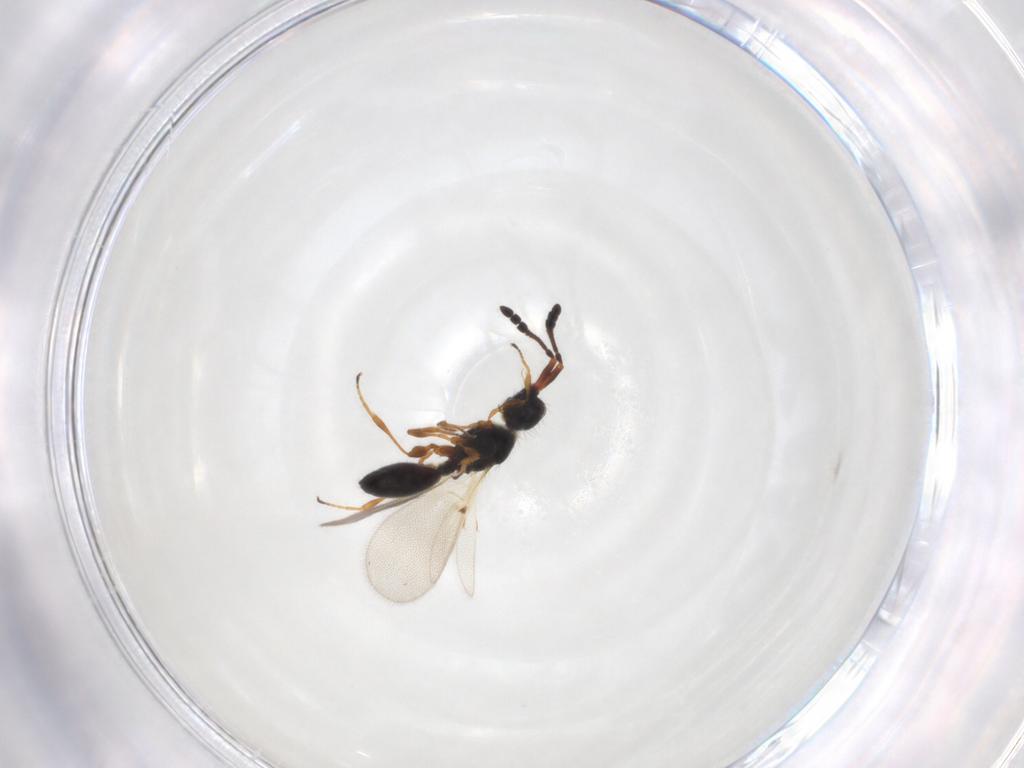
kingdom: Animalia
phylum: Arthropoda
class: Insecta
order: Hymenoptera
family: Diapriidae
